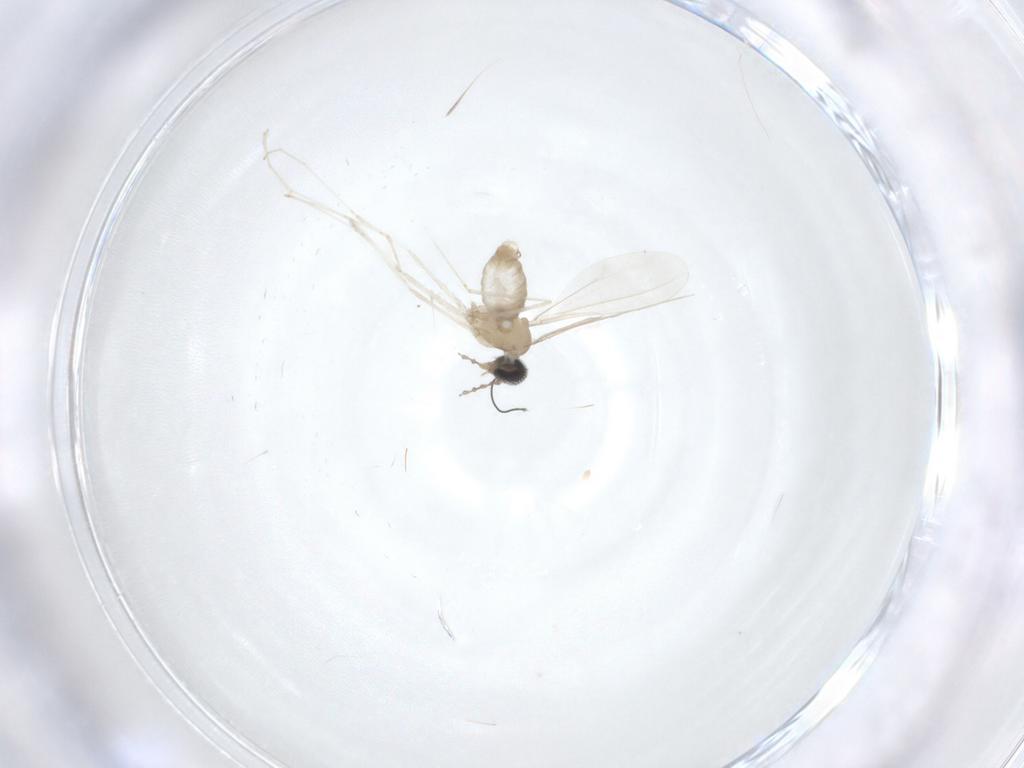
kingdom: Animalia
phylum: Arthropoda
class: Insecta
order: Diptera
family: Cecidomyiidae
